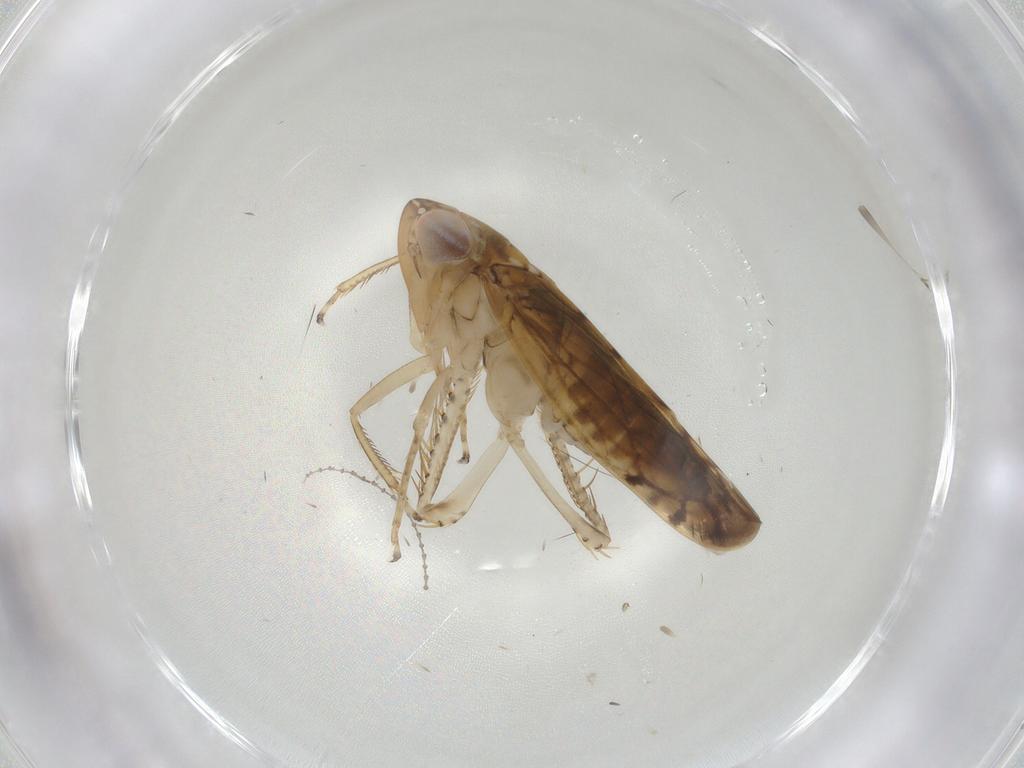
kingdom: Animalia
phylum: Arthropoda
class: Insecta
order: Hemiptera
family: Cicadellidae
